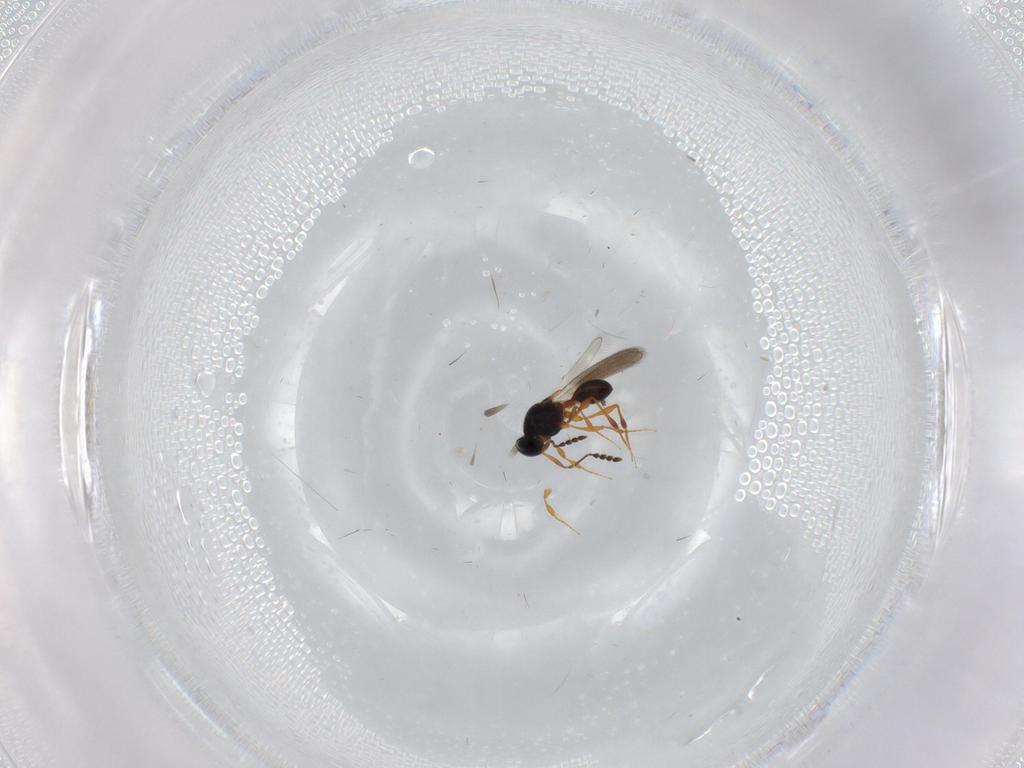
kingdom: Animalia
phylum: Arthropoda
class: Insecta
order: Hymenoptera
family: Platygastridae
